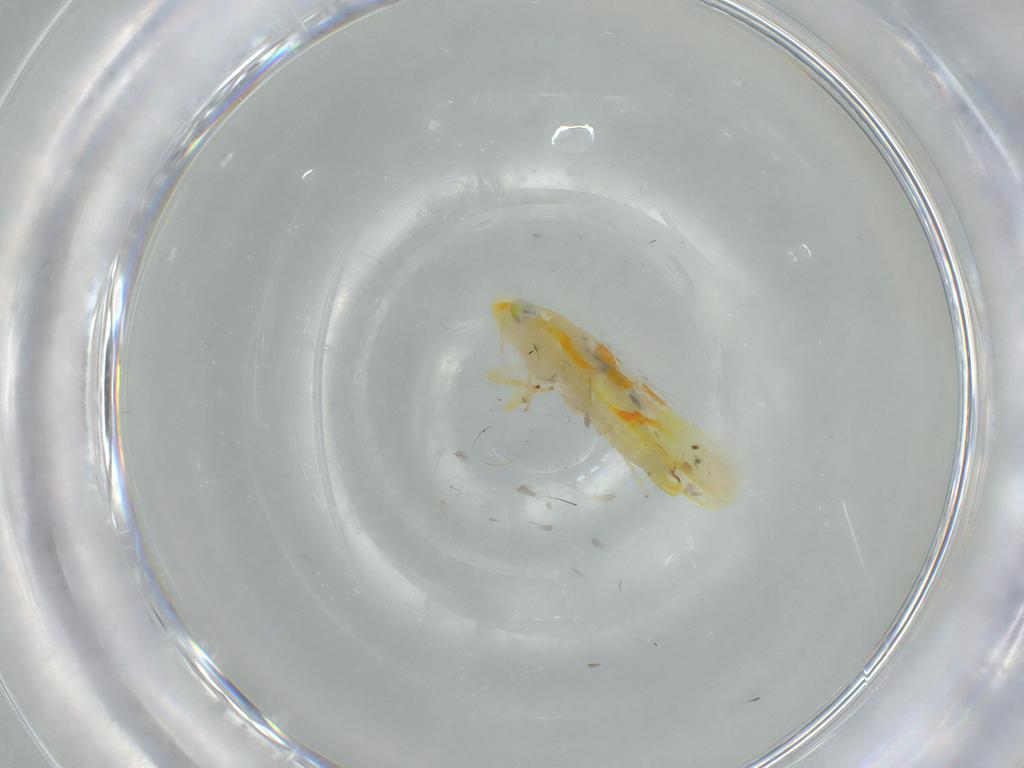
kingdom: Animalia
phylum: Arthropoda
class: Insecta
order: Hemiptera
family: Cicadellidae
